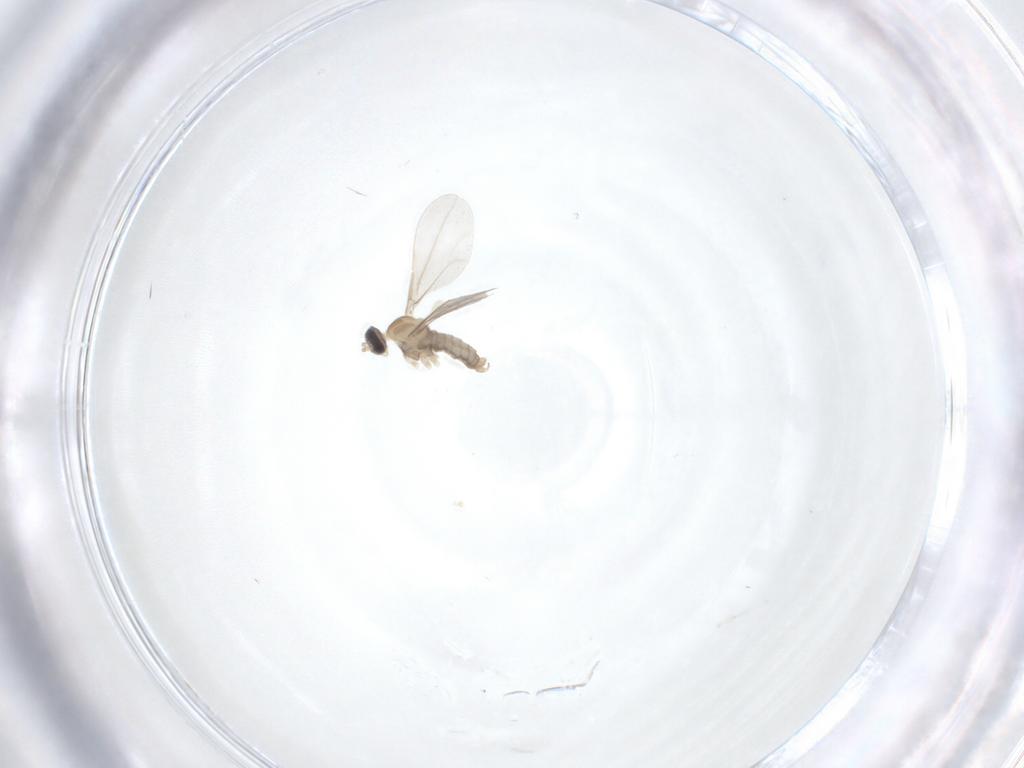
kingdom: Animalia
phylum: Arthropoda
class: Insecta
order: Diptera
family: Cecidomyiidae
